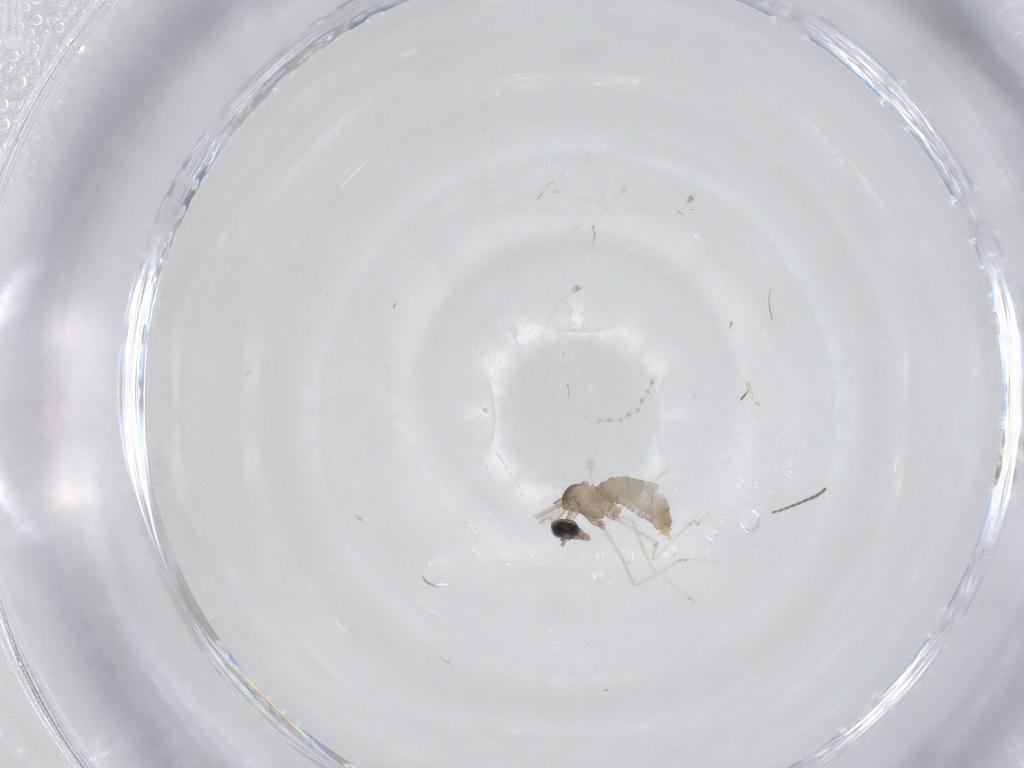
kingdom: Animalia
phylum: Arthropoda
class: Insecta
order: Diptera
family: Cecidomyiidae
